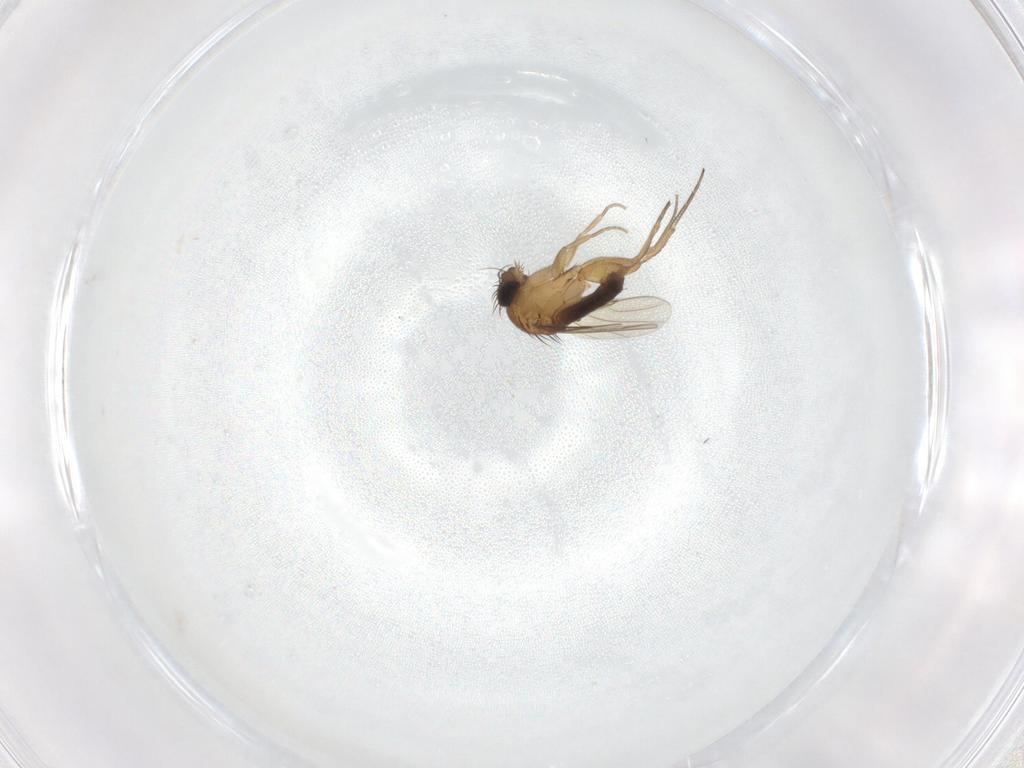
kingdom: Animalia
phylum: Arthropoda
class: Insecta
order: Diptera
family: Phoridae
